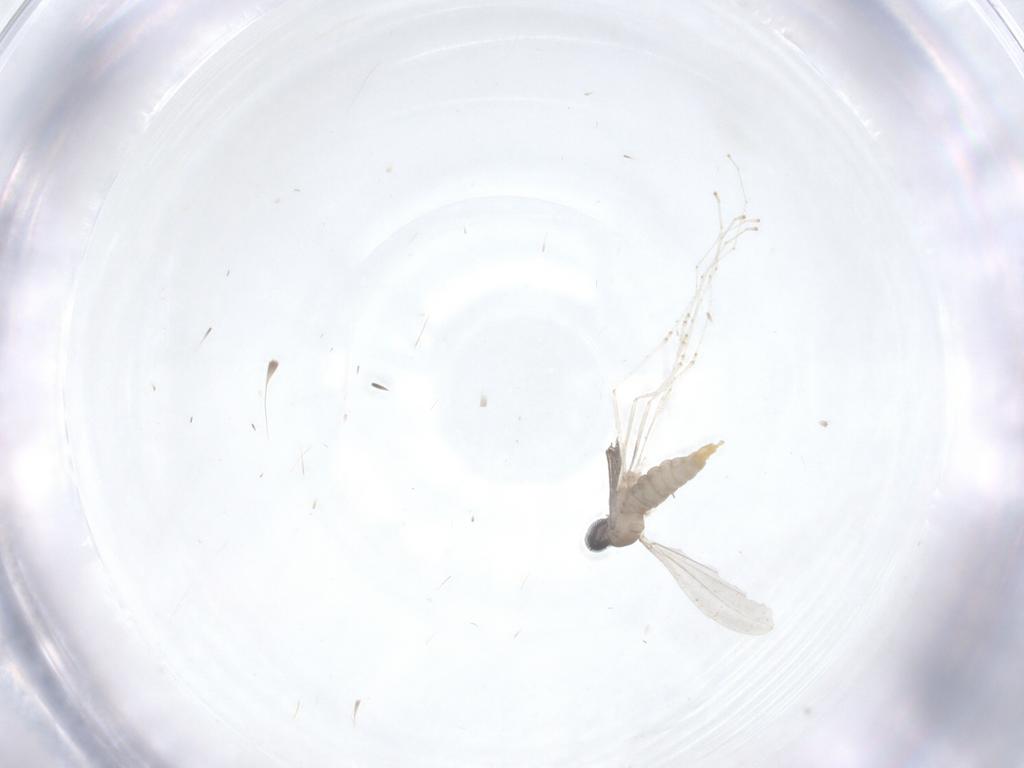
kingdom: Animalia
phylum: Arthropoda
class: Insecta
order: Diptera
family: Cecidomyiidae
